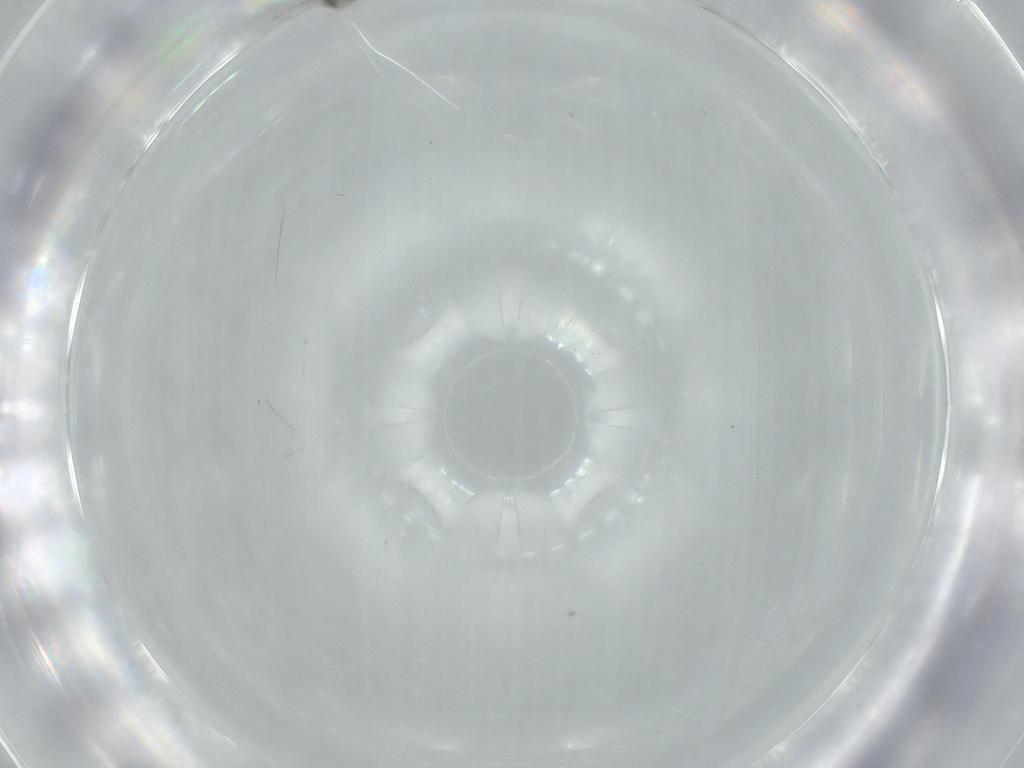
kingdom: Animalia
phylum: Arthropoda
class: Insecta
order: Diptera
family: Cecidomyiidae
